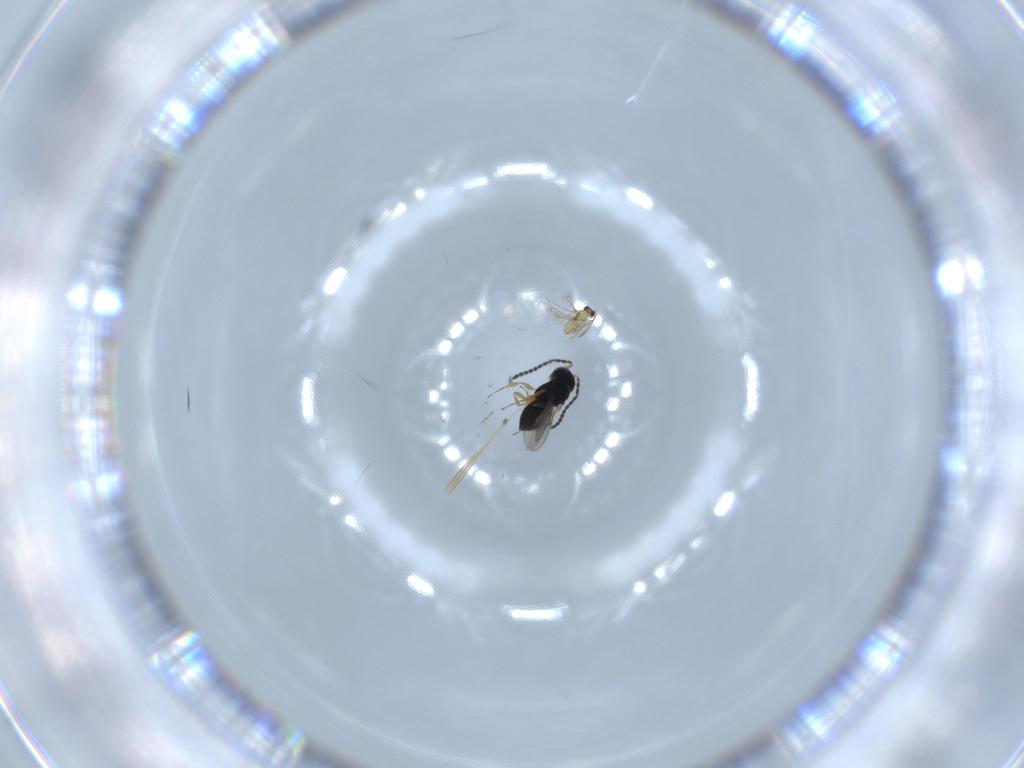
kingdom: Animalia
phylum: Arthropoda
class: Insecta
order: Hymenoptera
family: Scelionidae
